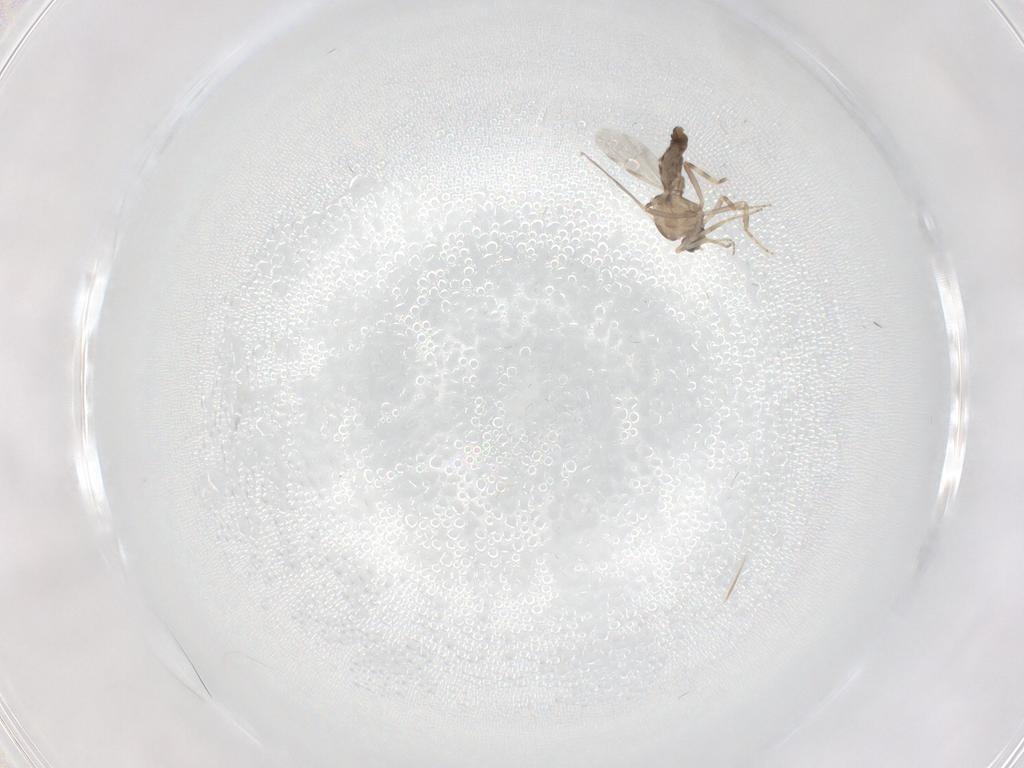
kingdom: Animalia
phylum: Arthropoda
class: Insecta
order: Diptera
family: Ceratopogonidae
